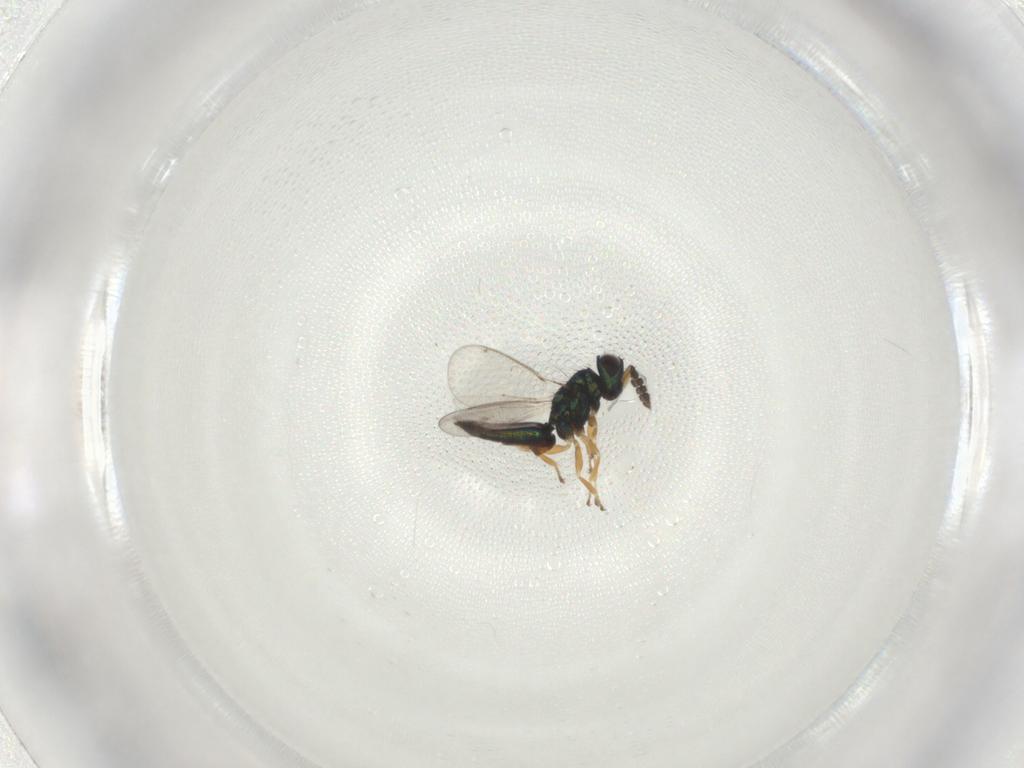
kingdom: Animalia
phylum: Arthropoda
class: Insecta
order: Hymenoptera
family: Eulophidae
